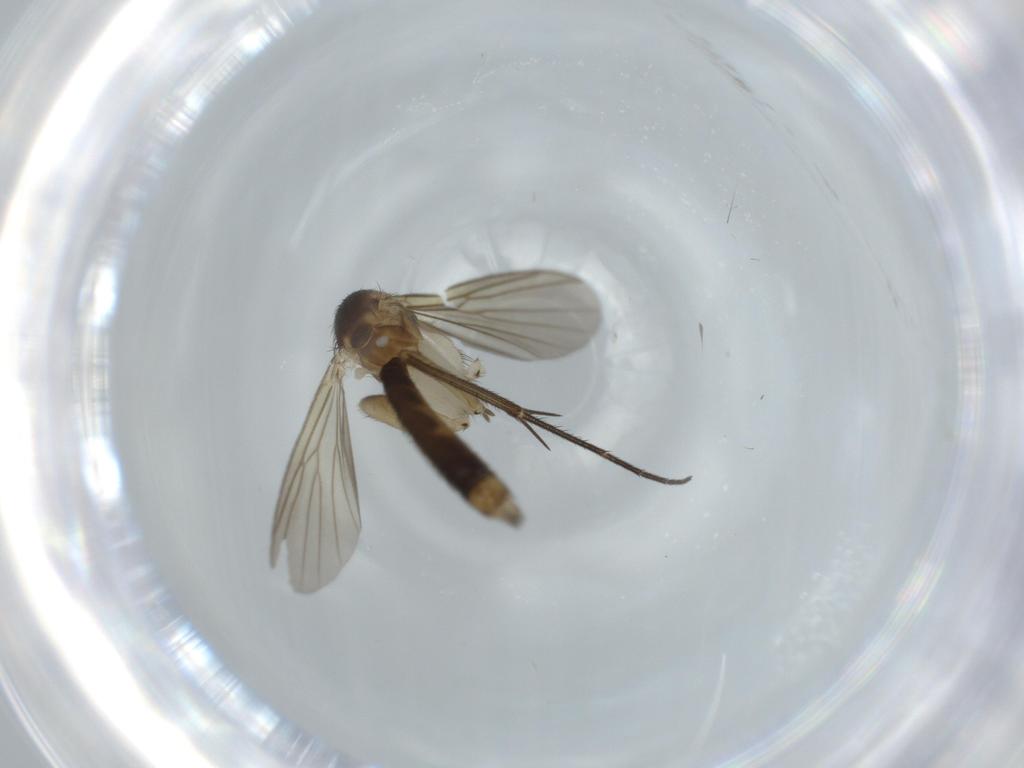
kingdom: Animalia
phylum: Arthropoda
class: Insecta
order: Diptera
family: Mycetophilidae
